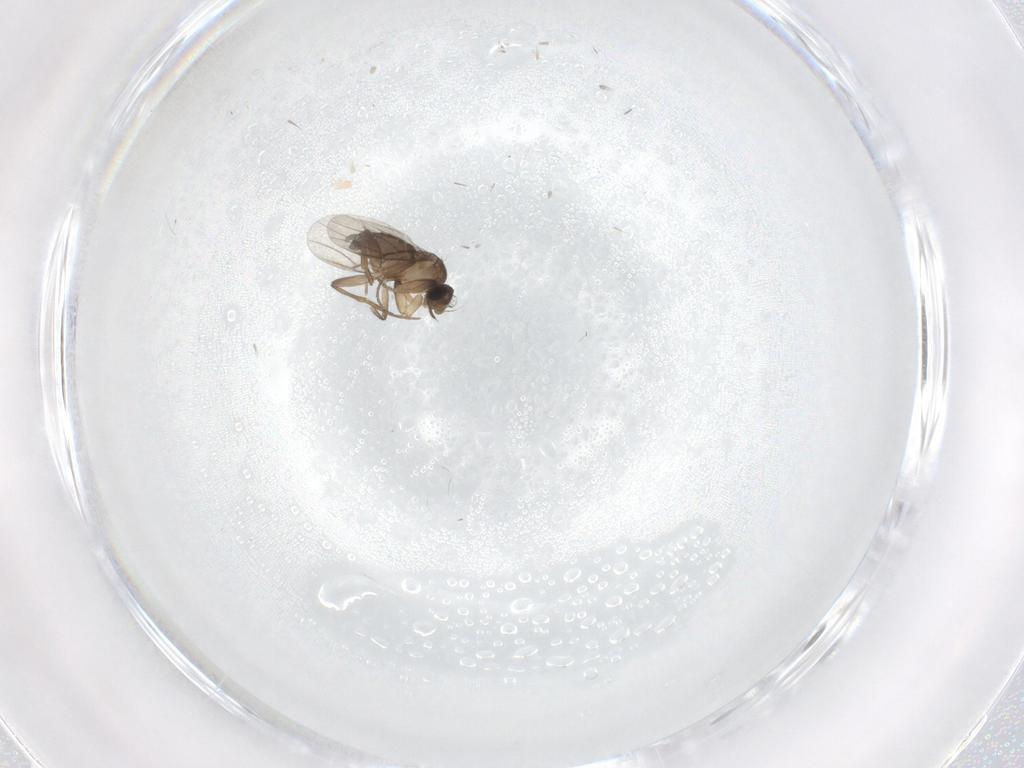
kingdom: Animalia
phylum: Arthropoda
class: Insecta
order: Diptera
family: Phoridae
